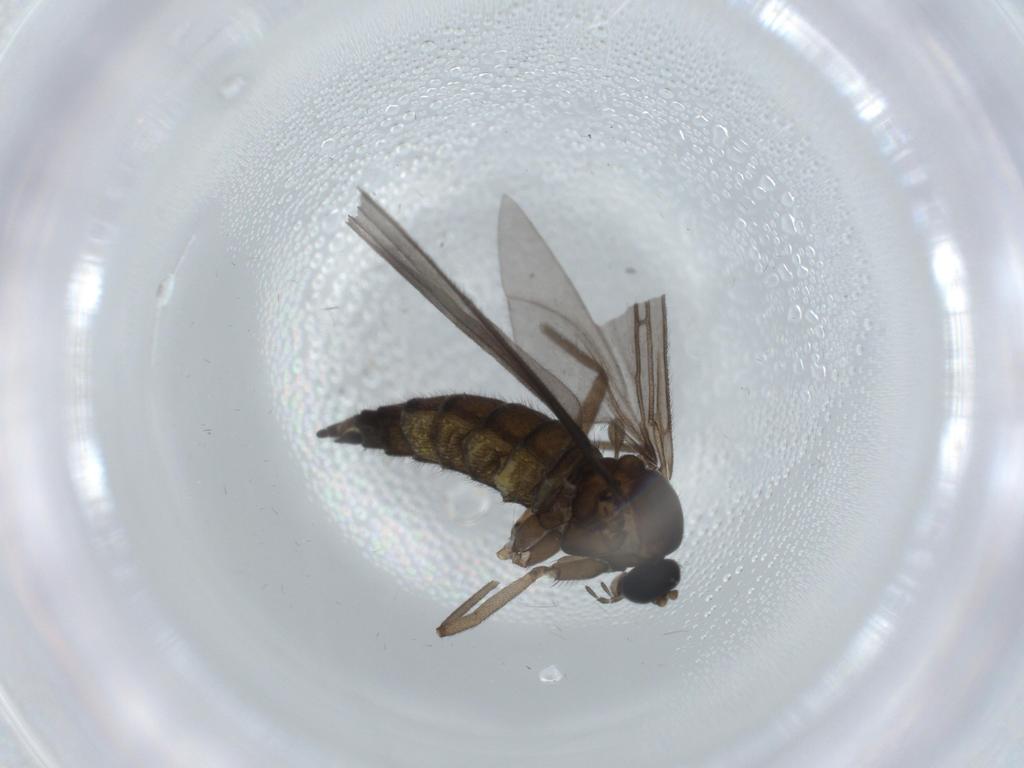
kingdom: Animalia
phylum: Arthropoda
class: Insecta
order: Diptera
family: Sciaridae
